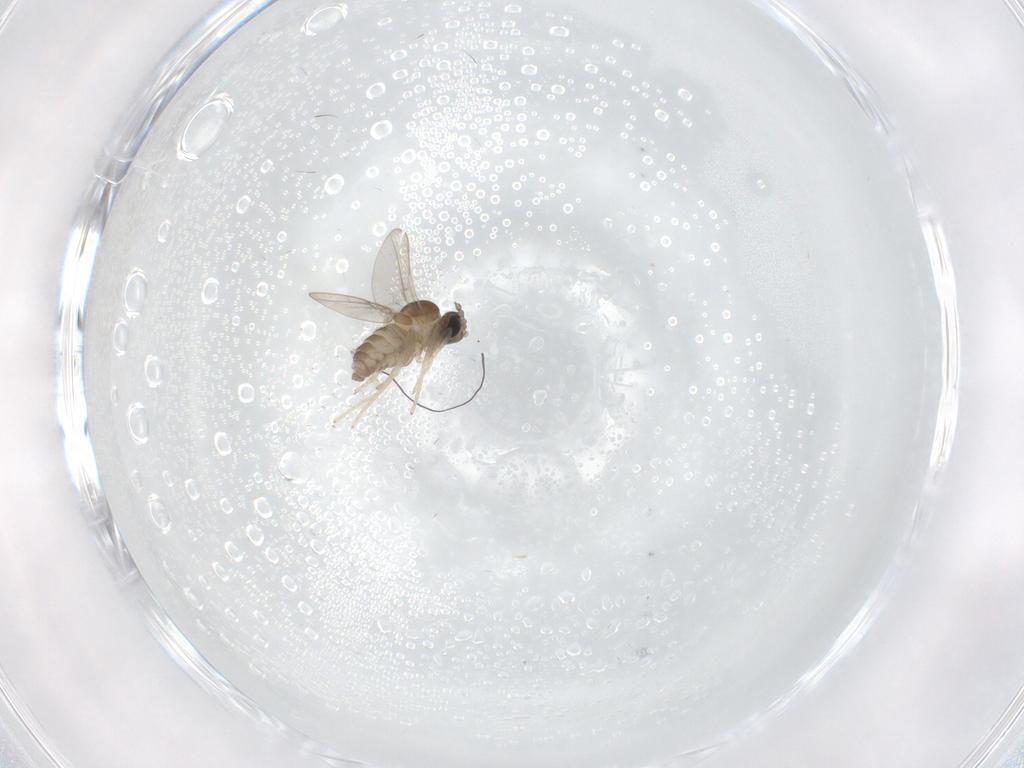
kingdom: Animalia
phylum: Arthropoda
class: Insecta
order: Diptera
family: Cecidomyiidae
